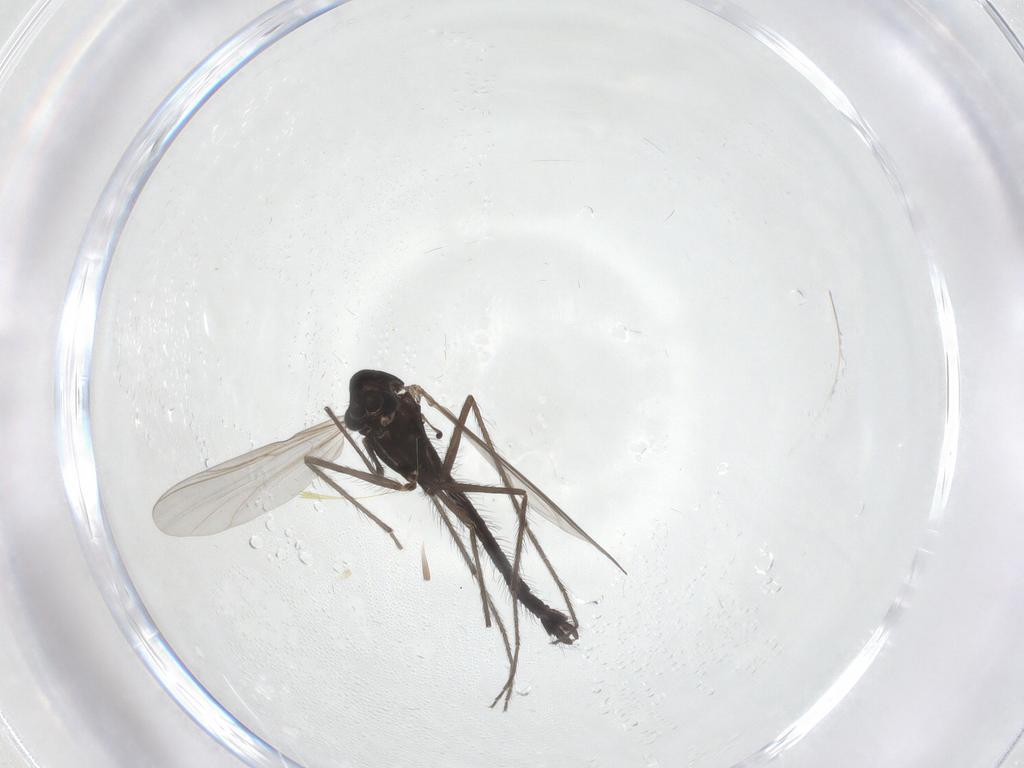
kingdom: Animalia
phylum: Arthropoda
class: Insecta
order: Diptera
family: Chironomidae
